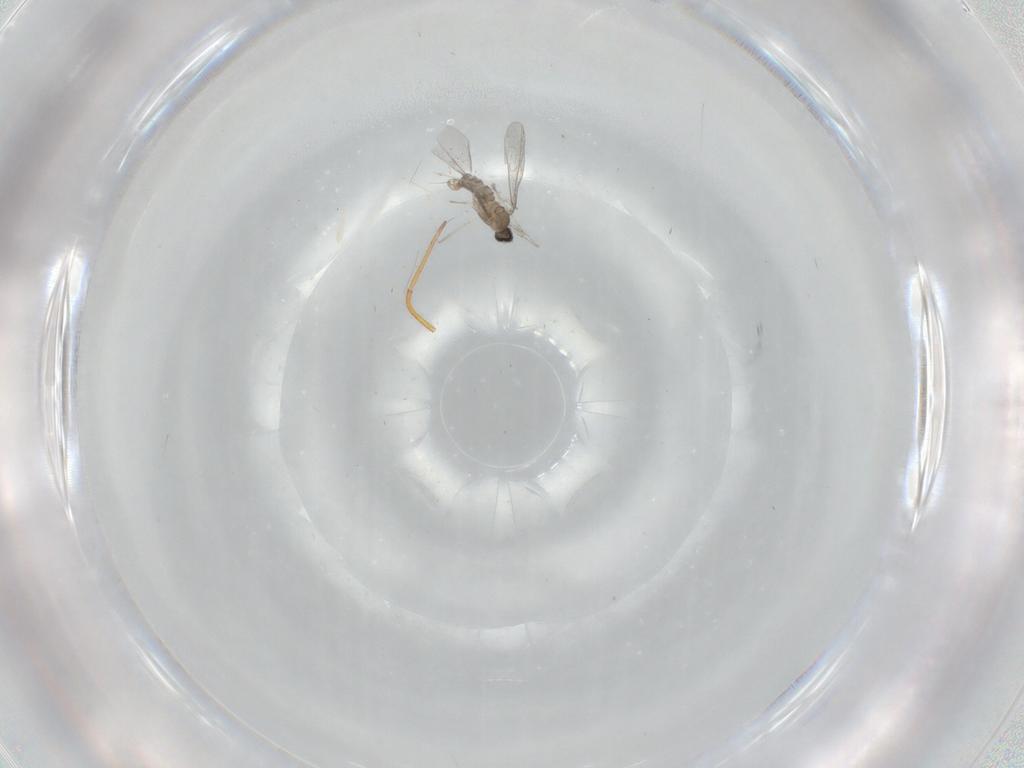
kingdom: Animalia
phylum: Arthropoda
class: Insecta
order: Diptera
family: Cecidomyiidae
